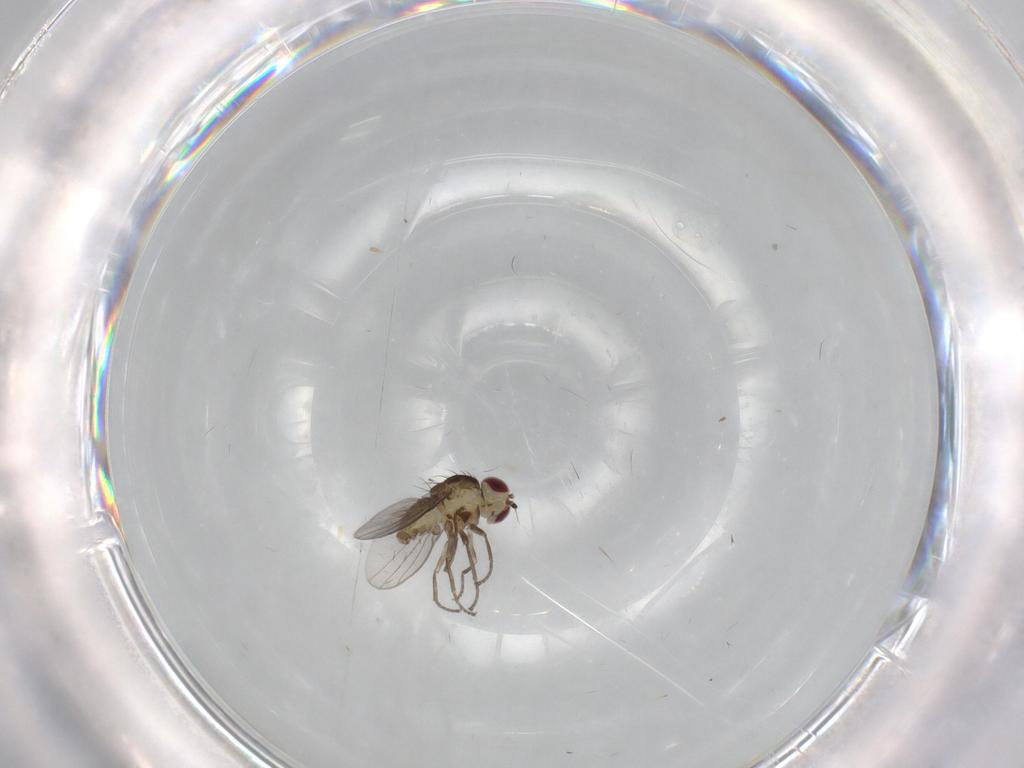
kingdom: Animalia
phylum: Arthropoda
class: Insecta
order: Diptera
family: Agromyzidae
